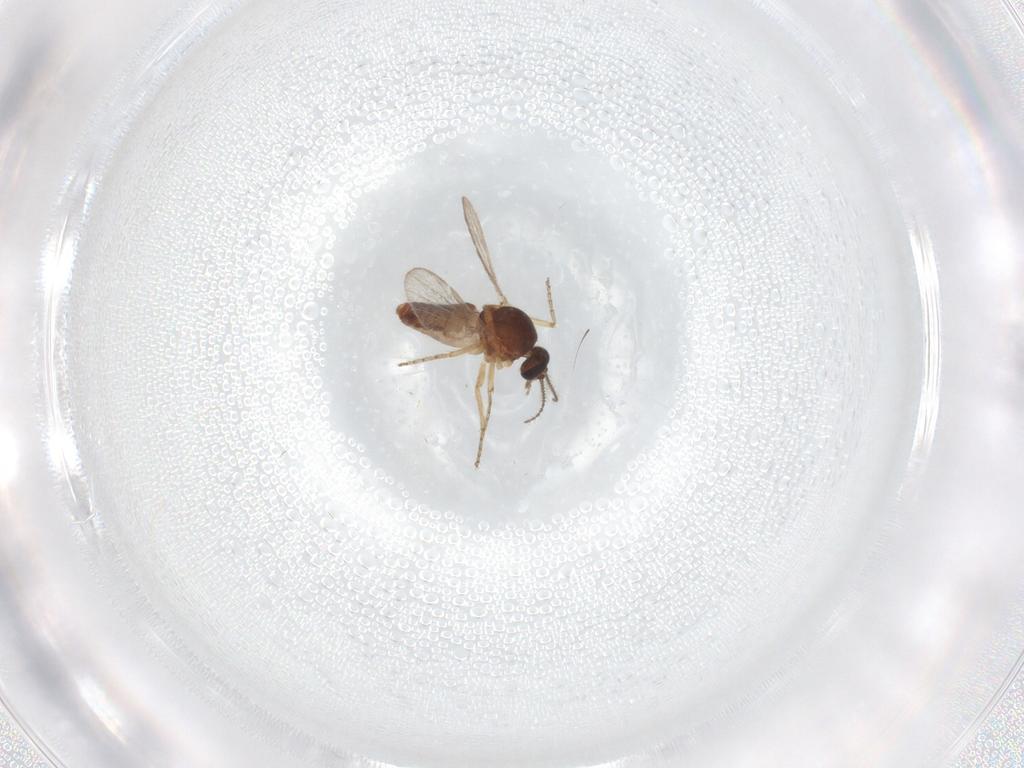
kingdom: Animalia
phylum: Arthropoda
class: Insecta
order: Diptera
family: Ceratopogonidae
